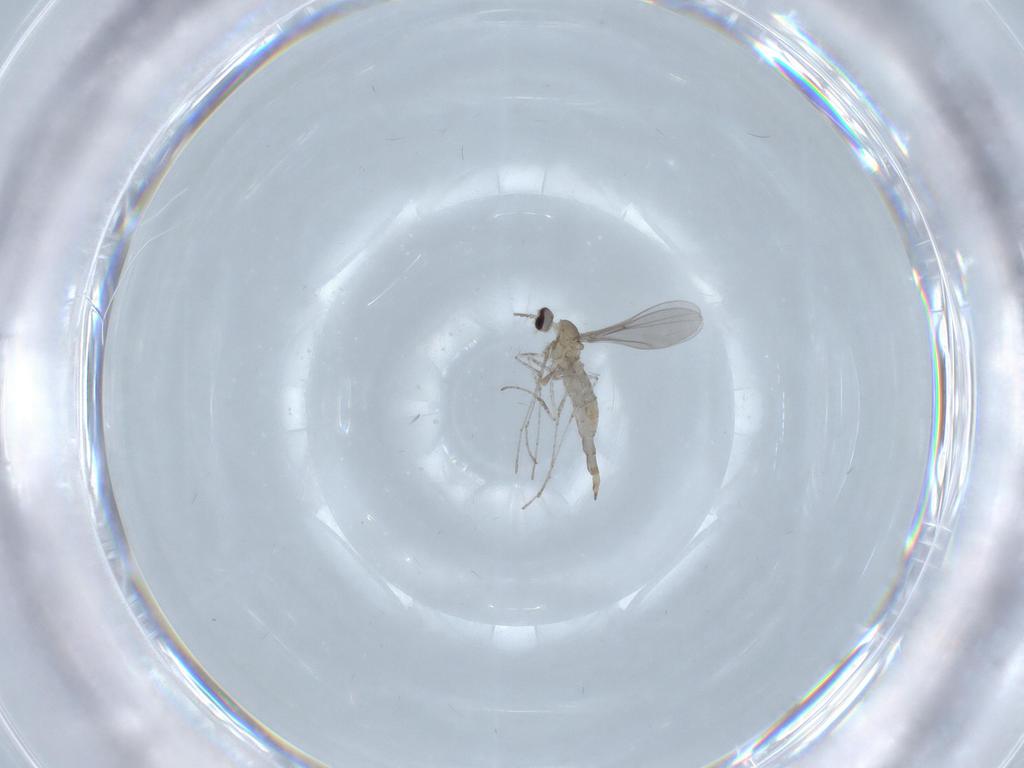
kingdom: Animalia
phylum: Arthropoda
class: Insecta
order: Diptera
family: Cecidomyiidae
